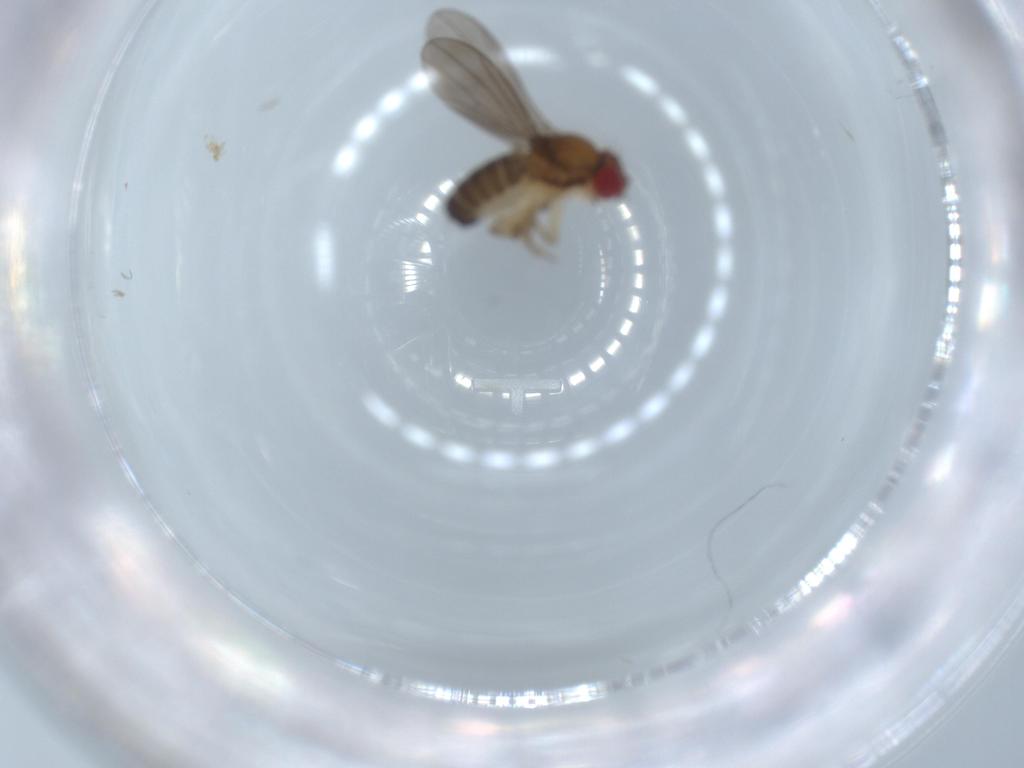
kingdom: Animalia
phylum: Arthropoda
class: Insecta
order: Diptera
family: Drosophilidae
